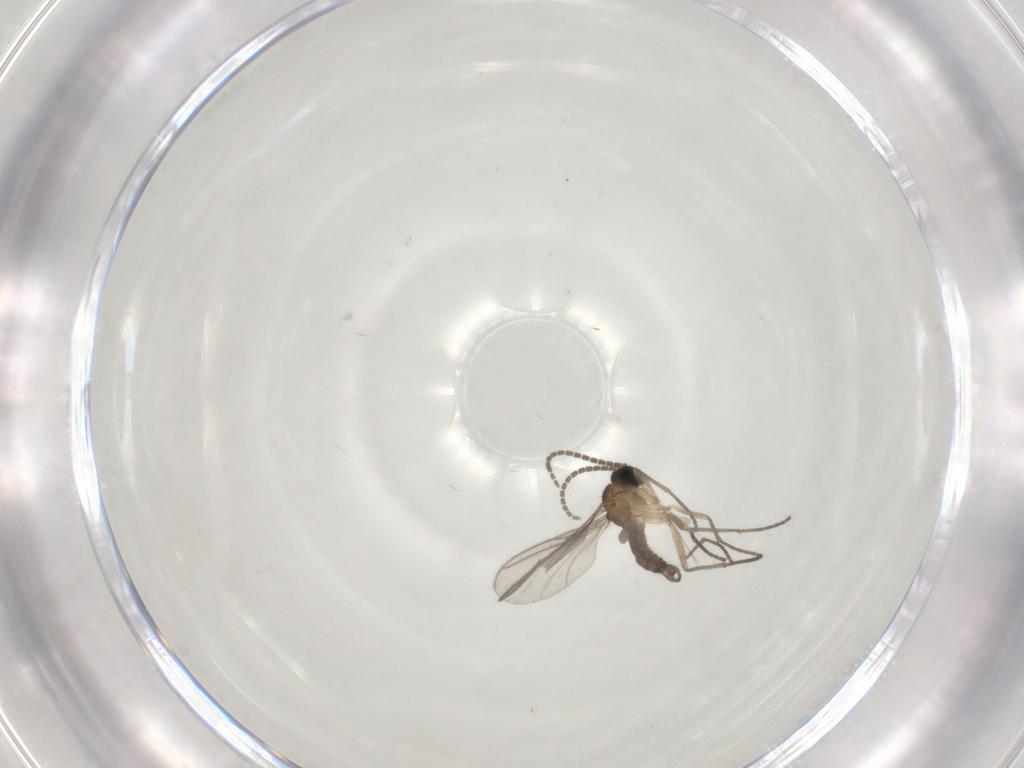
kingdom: Animalia
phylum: Arthropoda
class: Insecta
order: Diptera
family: Sciaridae
